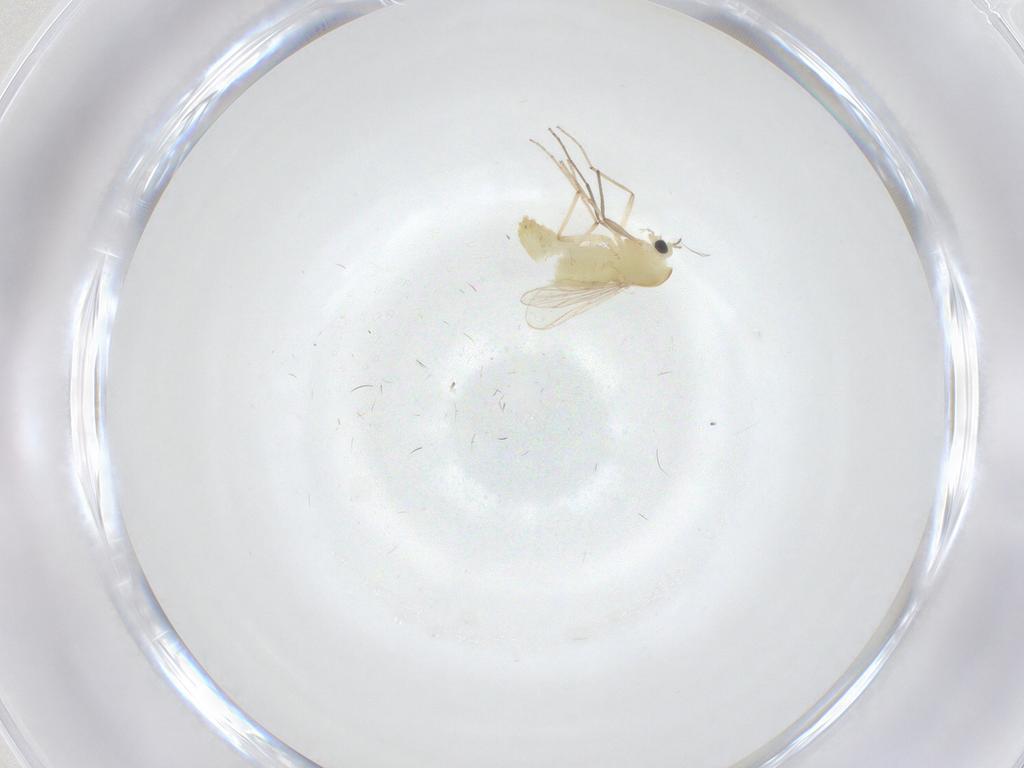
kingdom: Animalia
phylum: Arthropoda
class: Insecta
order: Diptera
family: Chironomidae
